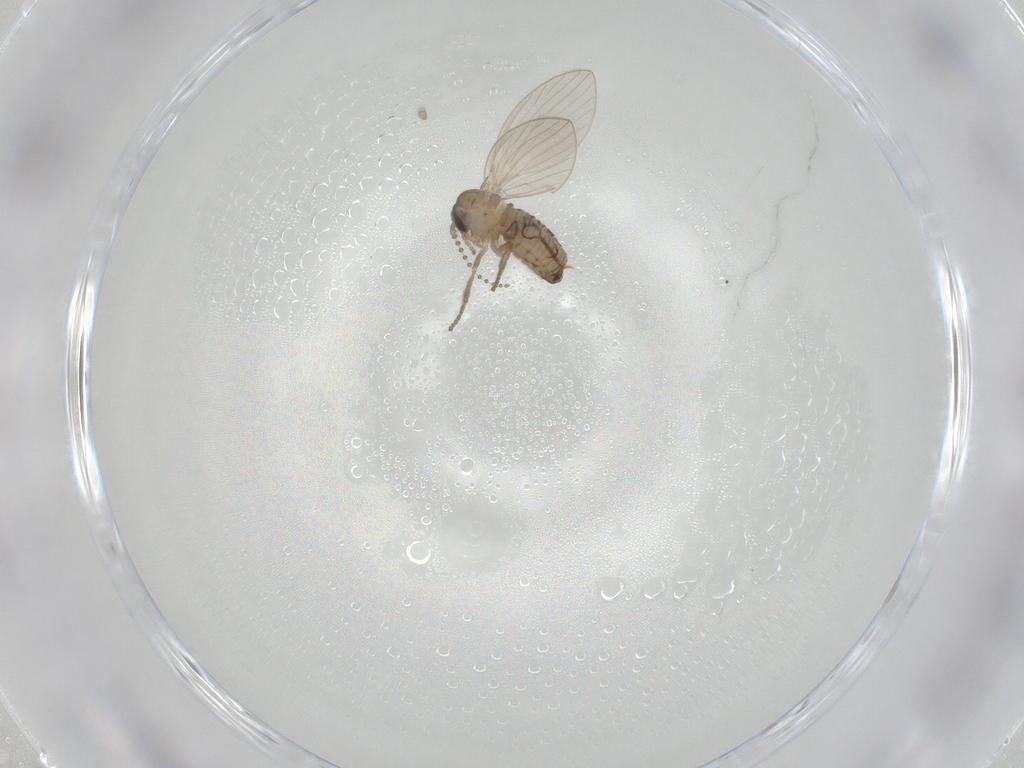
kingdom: Animalia
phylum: Arthropoda
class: Insecta
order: Diptera
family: Psychodidae
